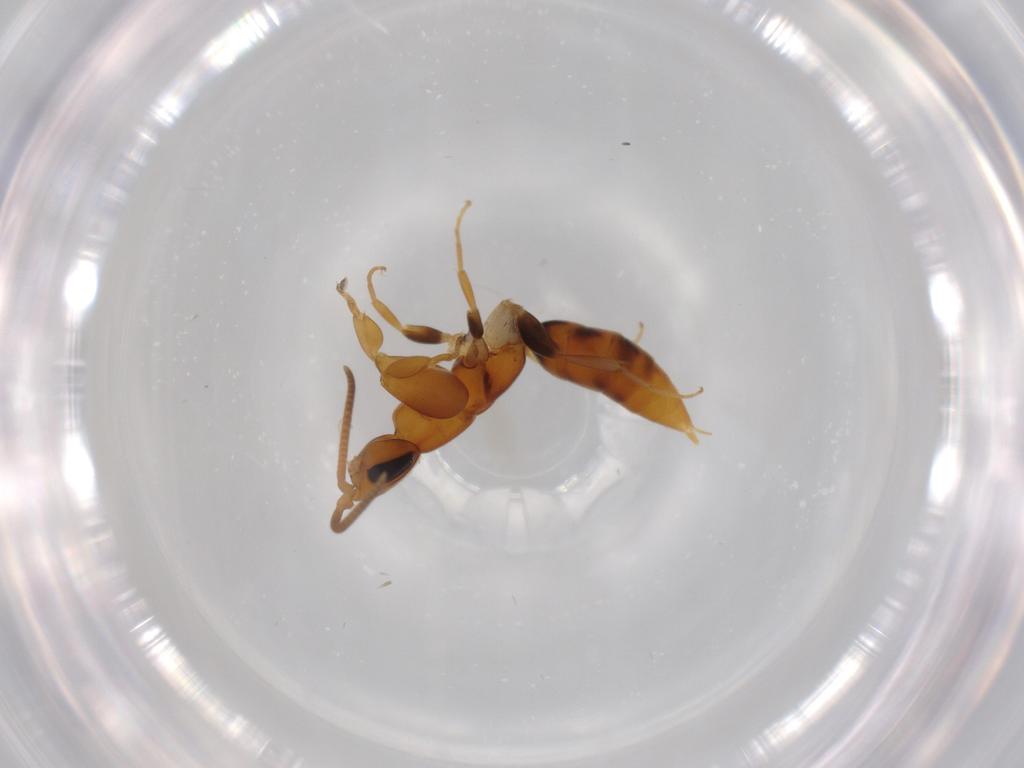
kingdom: Animalia
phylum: Arthropoda
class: Insecta
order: Hymenoptera
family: Sclerogibbidae
